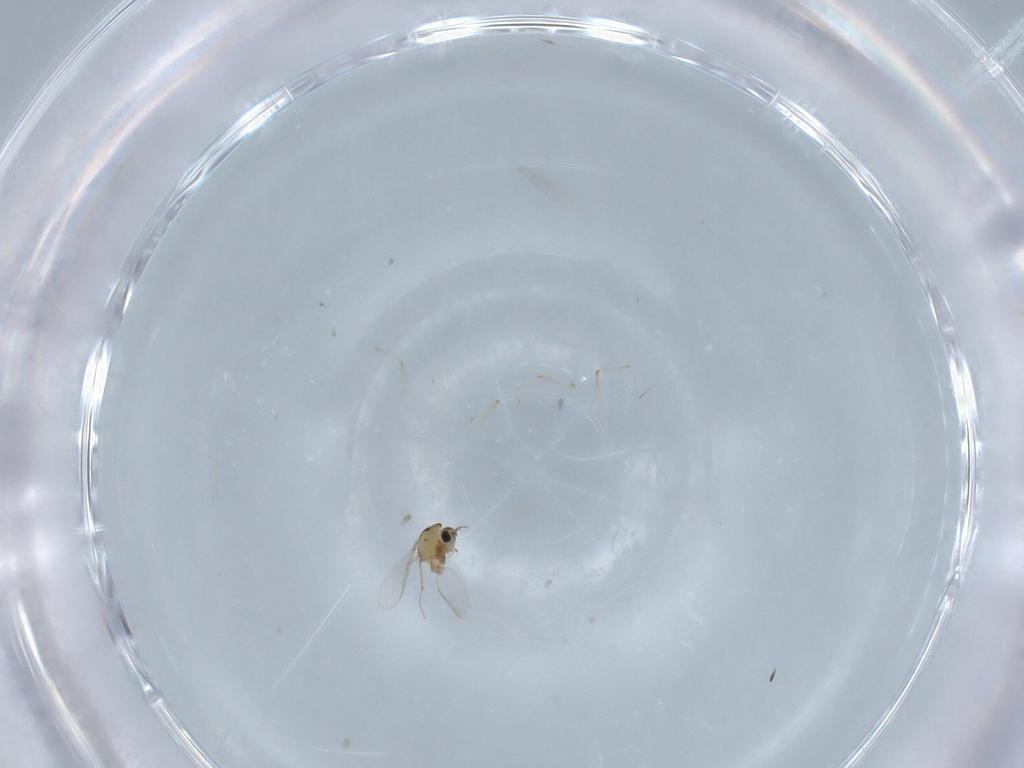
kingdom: Animalia
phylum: Arthropoda
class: Insecta
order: Diptera
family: Chironomidae
